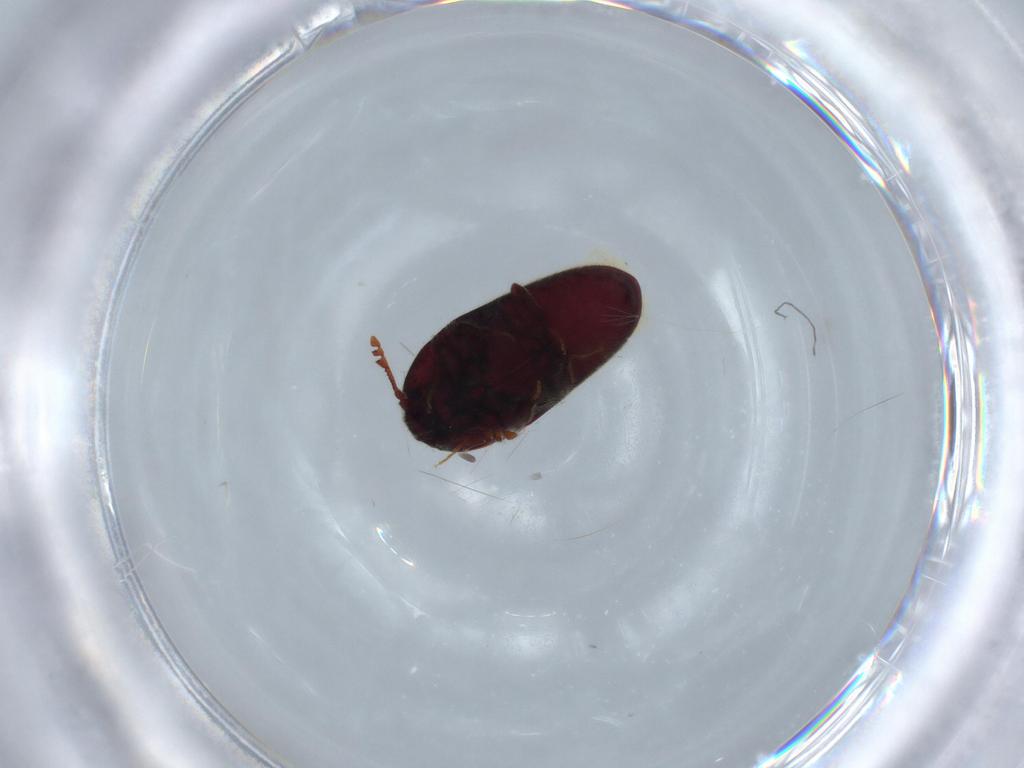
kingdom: Animalia
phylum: Arthropoda
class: Insecta
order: Coleoptera
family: Throscidae
